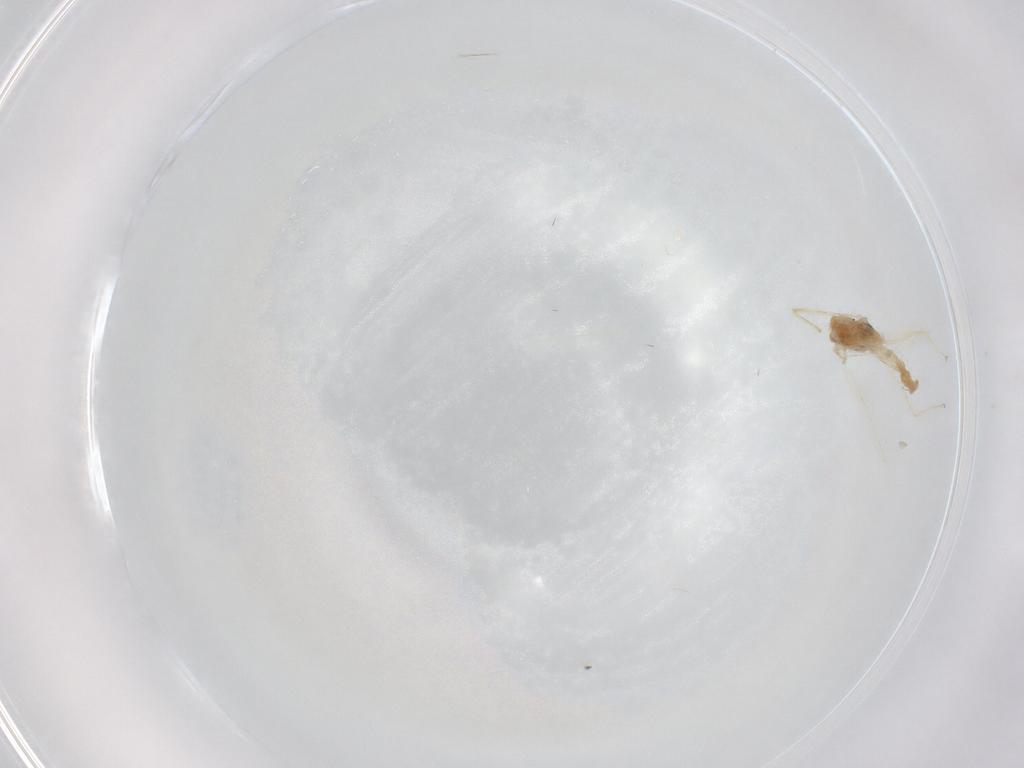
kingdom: Animalia
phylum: Arthropoda
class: Insecta
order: Diptera
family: Chironomidae
